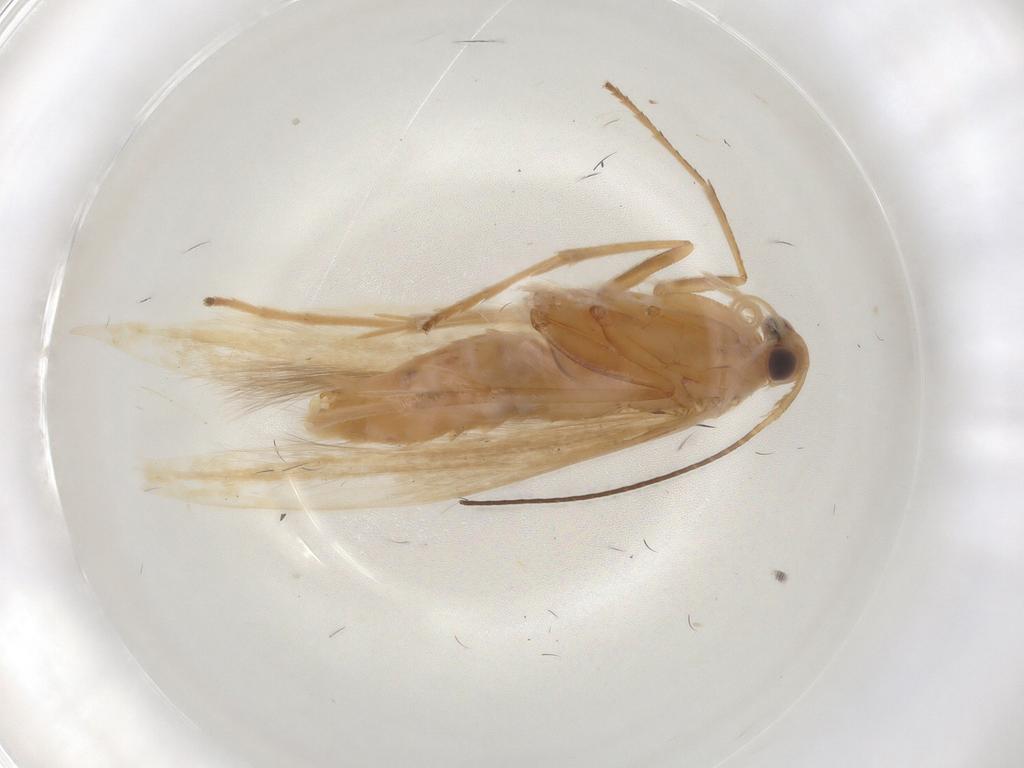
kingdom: Animalia
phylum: Arthropoda
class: Insecta
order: Lepidoptera
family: Coleophoridae
